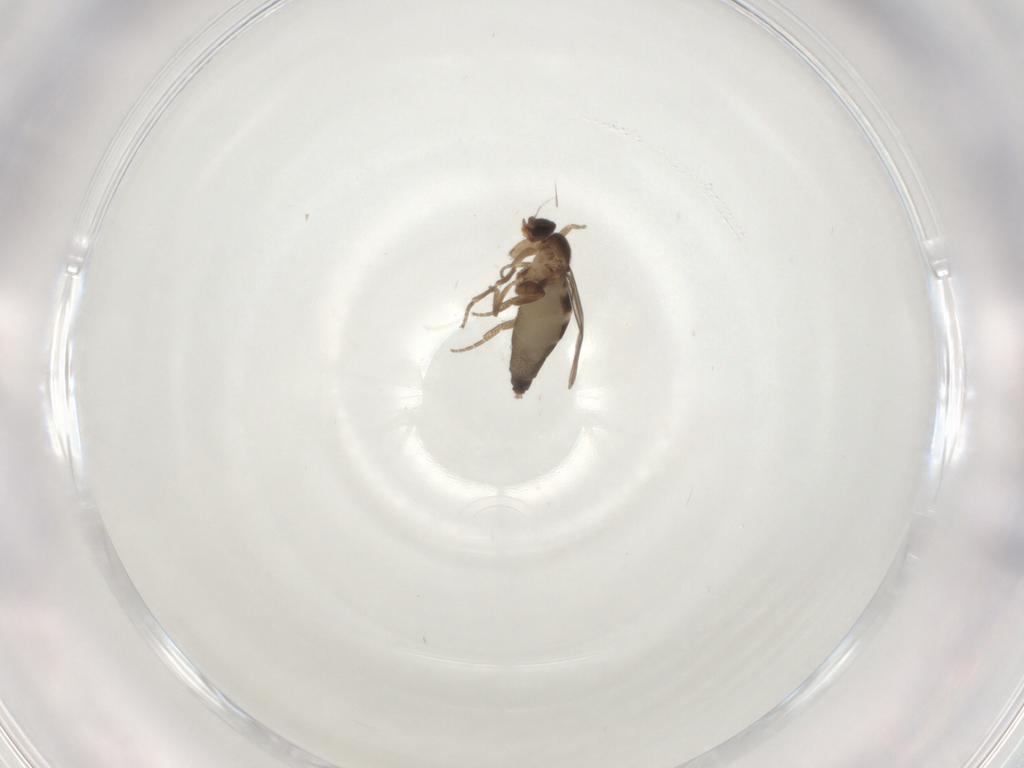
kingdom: Animalia
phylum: Arthropoda
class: Insecta
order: Diptera
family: Phoridae
